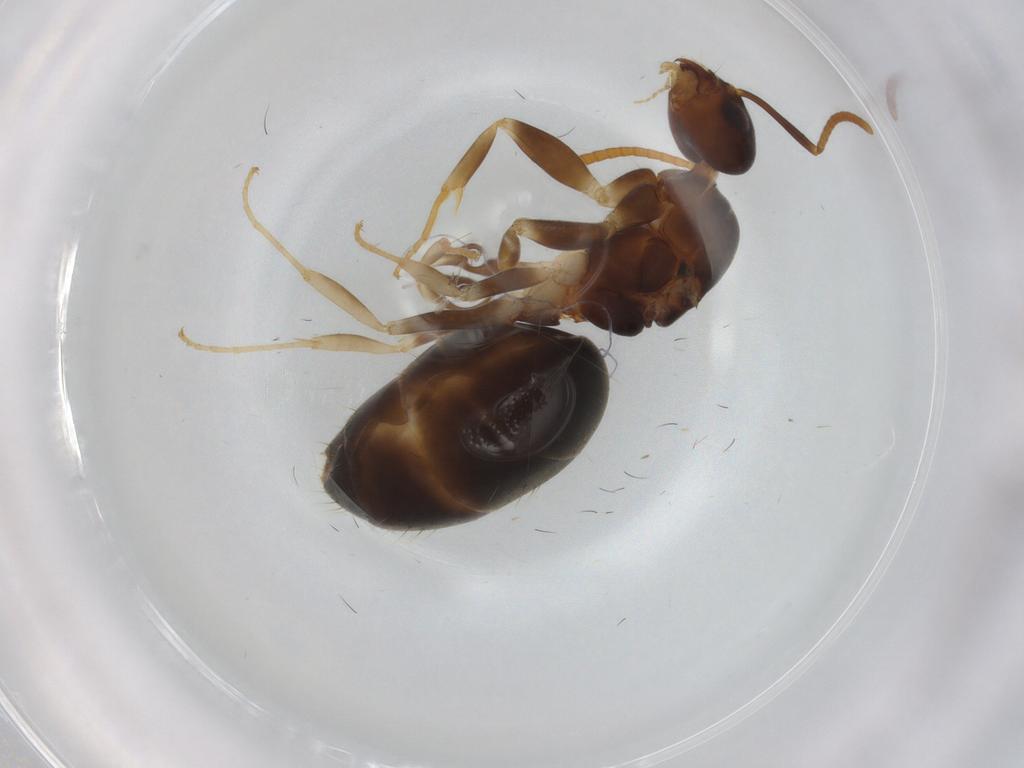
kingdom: Animalia
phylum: Arthropoda
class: Insecta
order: Hymenoptera
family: Formicidae
